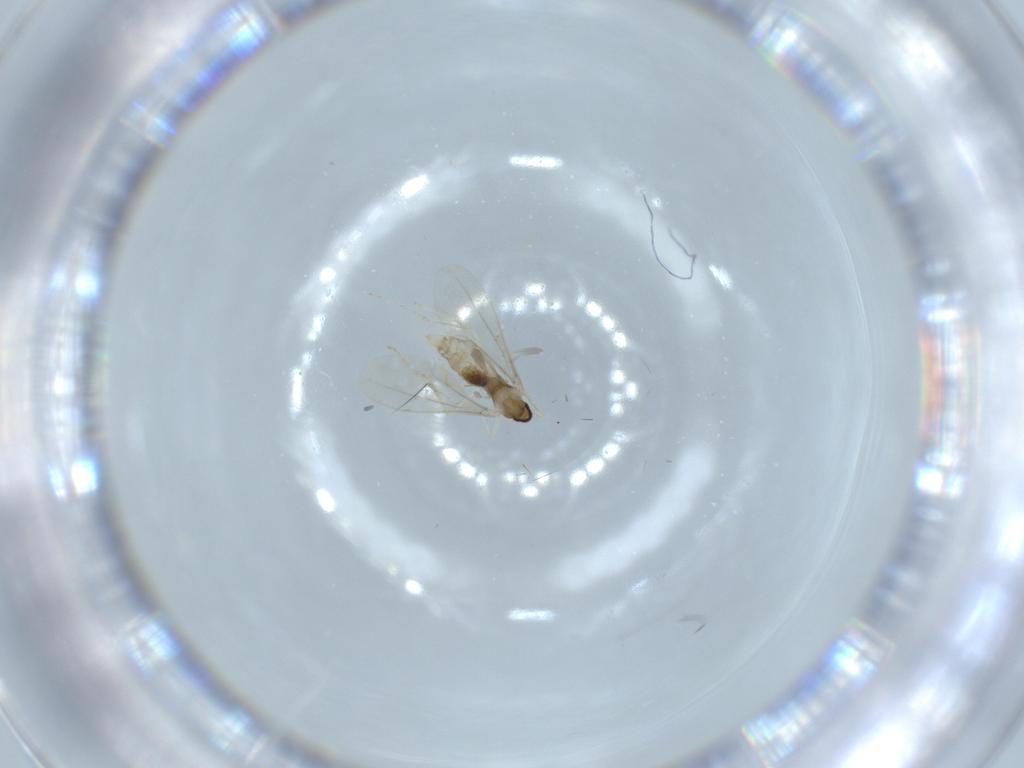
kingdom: Animalia
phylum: Arthropoda
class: Insecta
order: Diptera
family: Cecidomyiidae
